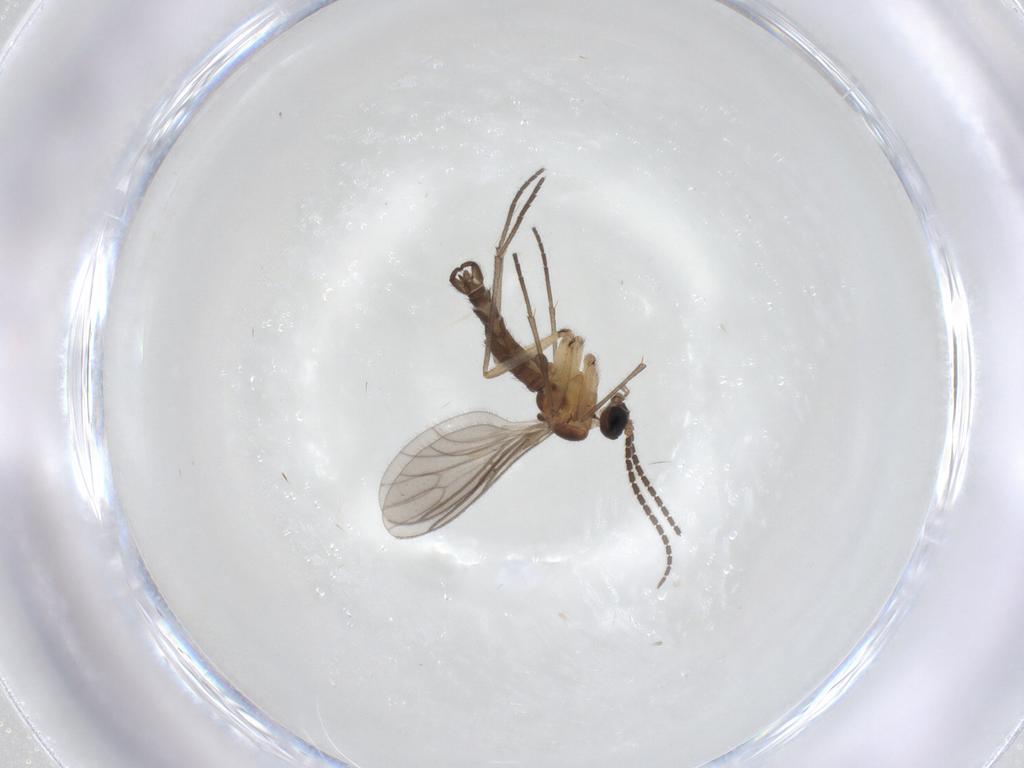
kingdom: Animalia
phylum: Arthropoda
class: Insecta
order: Diptera
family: Sciaridae
